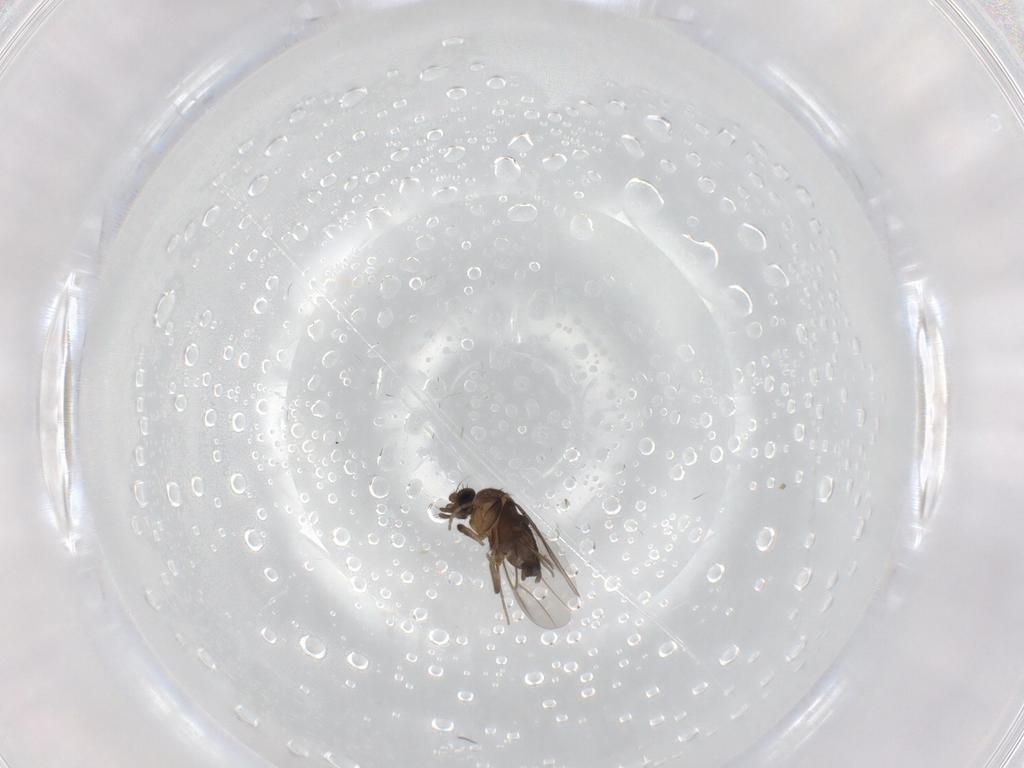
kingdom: Animalia
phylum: Arthropoda
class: Insecta
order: Diptera
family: Phoridae
